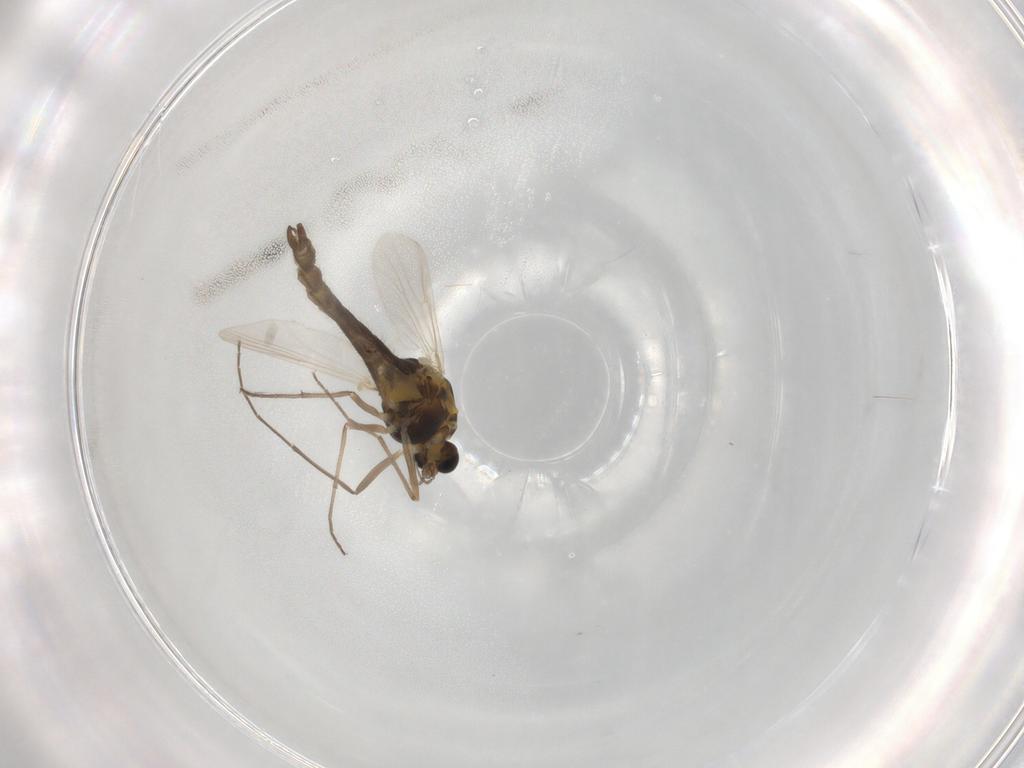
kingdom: Animalia
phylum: Arthropoda
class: Insecta
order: Diptera
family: Chironomidae
